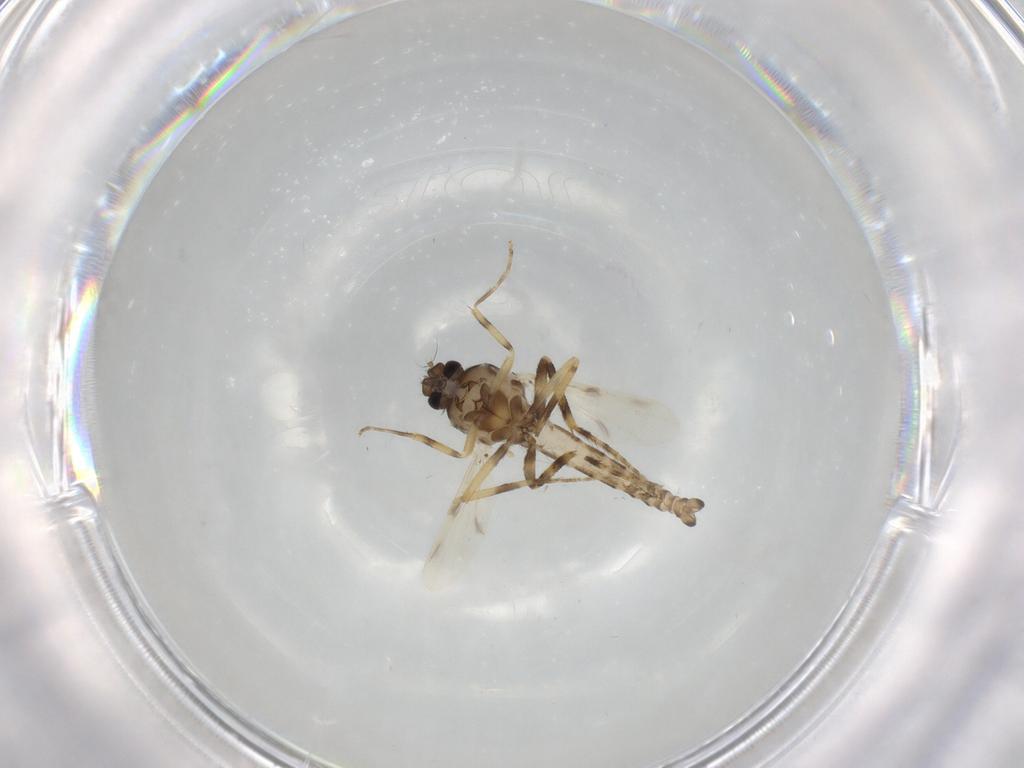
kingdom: Animalia
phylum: Arthropoda
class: Insecta
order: Diptera
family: Ceratopogonidae
